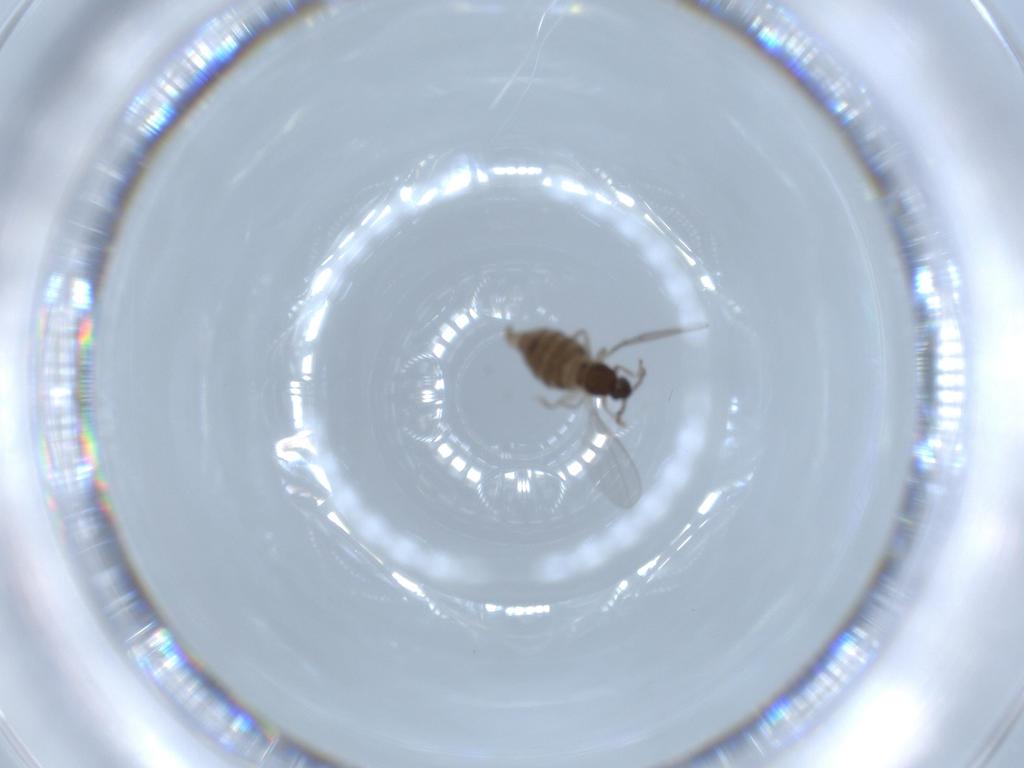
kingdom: Animalia
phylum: Arthropoda
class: Insecta
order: Diptera
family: Cecidomyiidae
